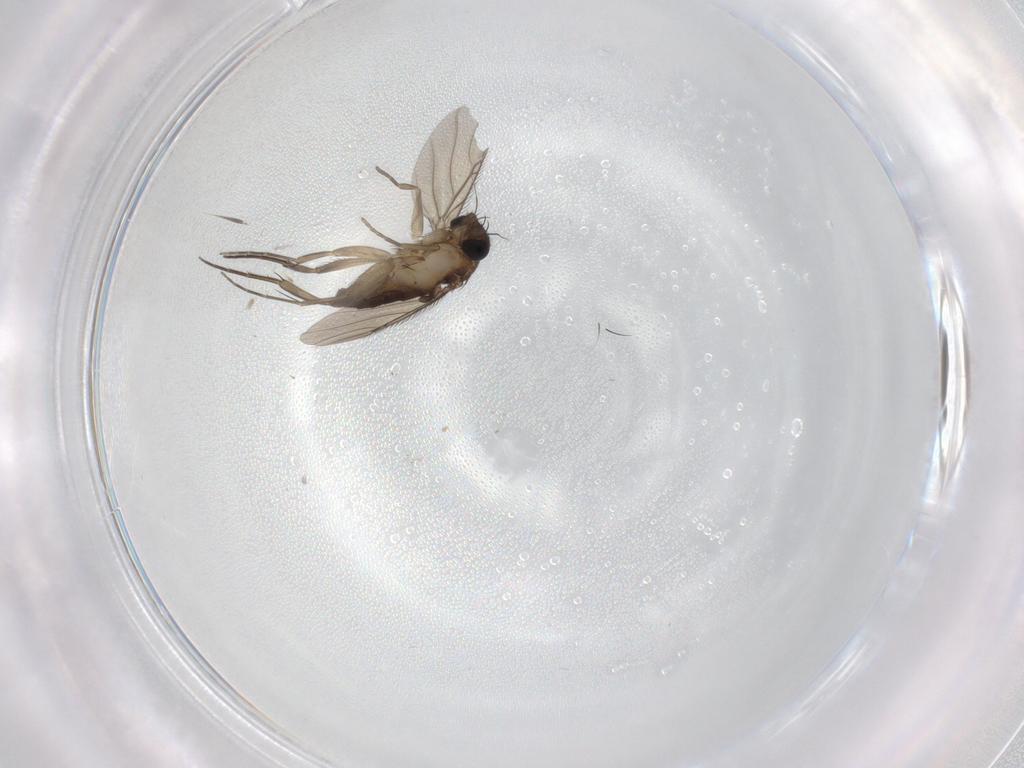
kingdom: Animalia
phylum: Arthropoda
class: Insecta
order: Diptera
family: Phoridae
